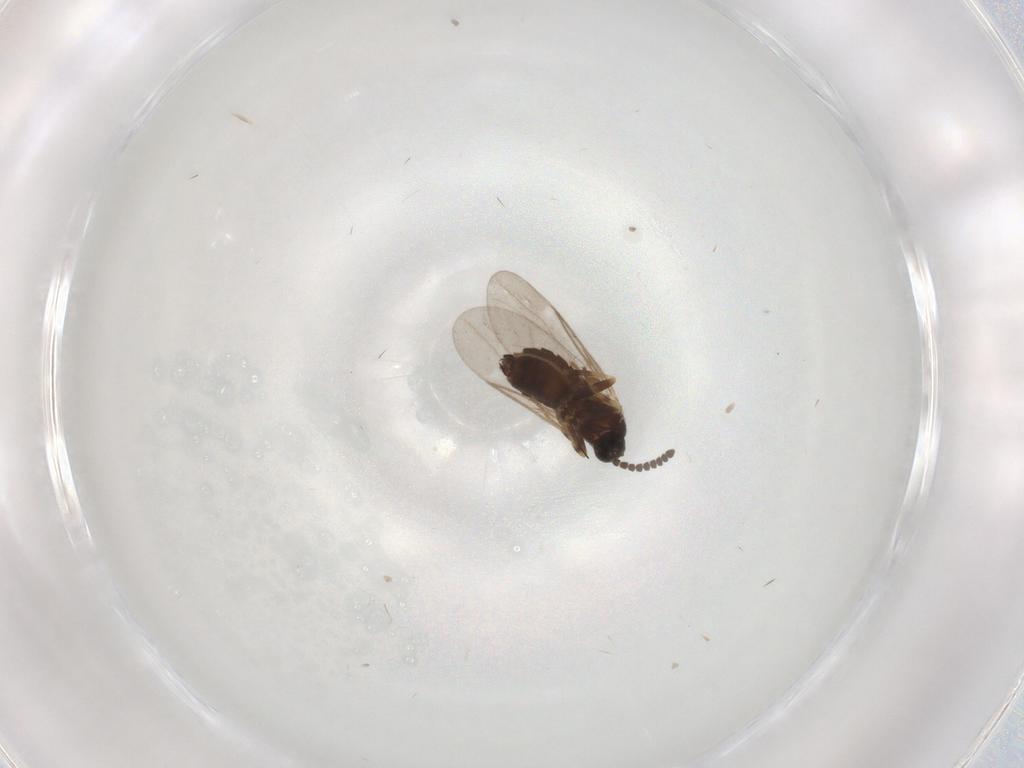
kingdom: Animalia
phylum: Arthropoda
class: Insecta
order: Diptera
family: Scatopsidae
